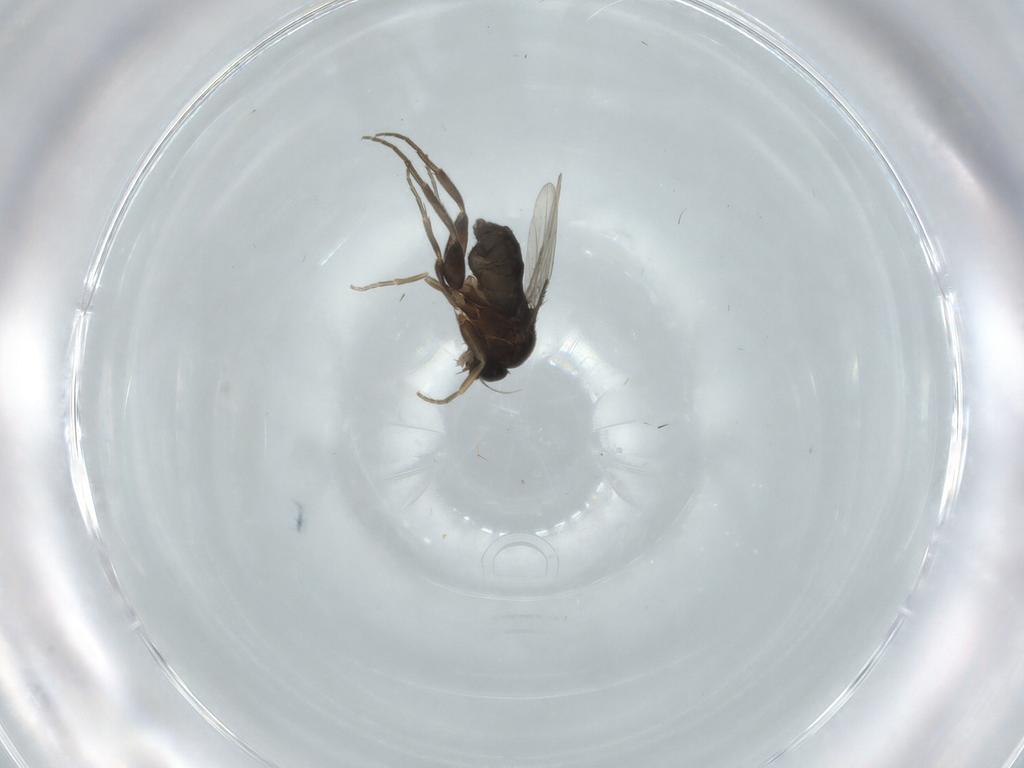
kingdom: Animalia
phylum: Arthropoda
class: Insecta
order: Diptera
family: Phoridae
